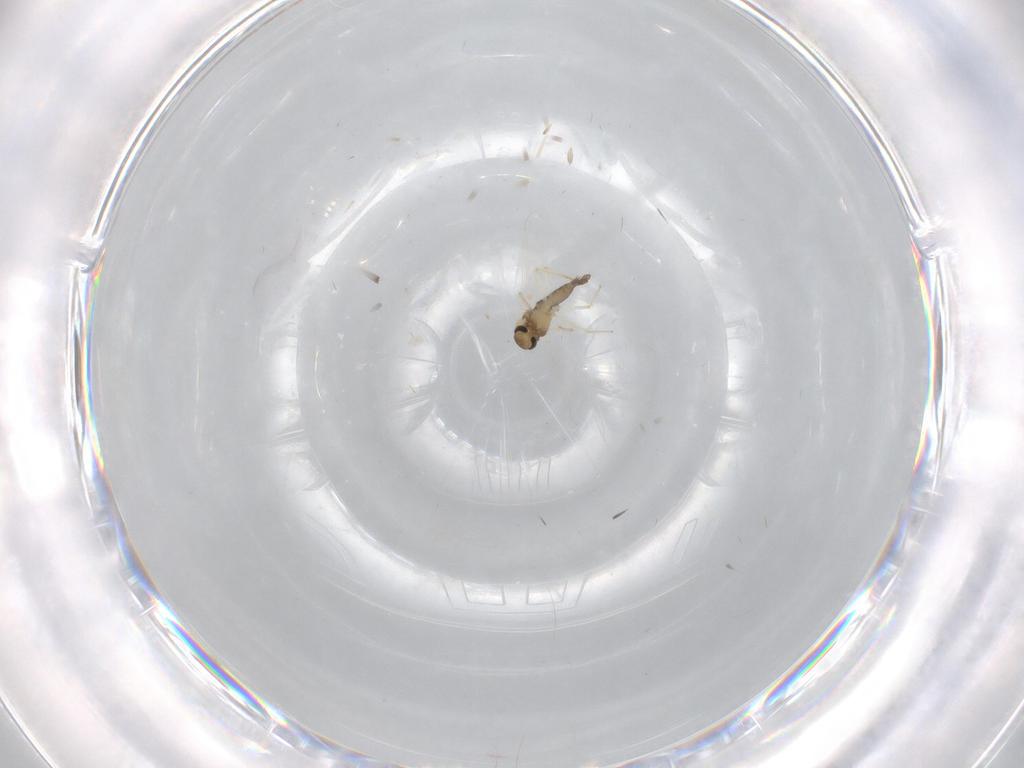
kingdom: Animalia
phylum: Arthropoda
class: Insecta
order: Diptera
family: Chironomidae
